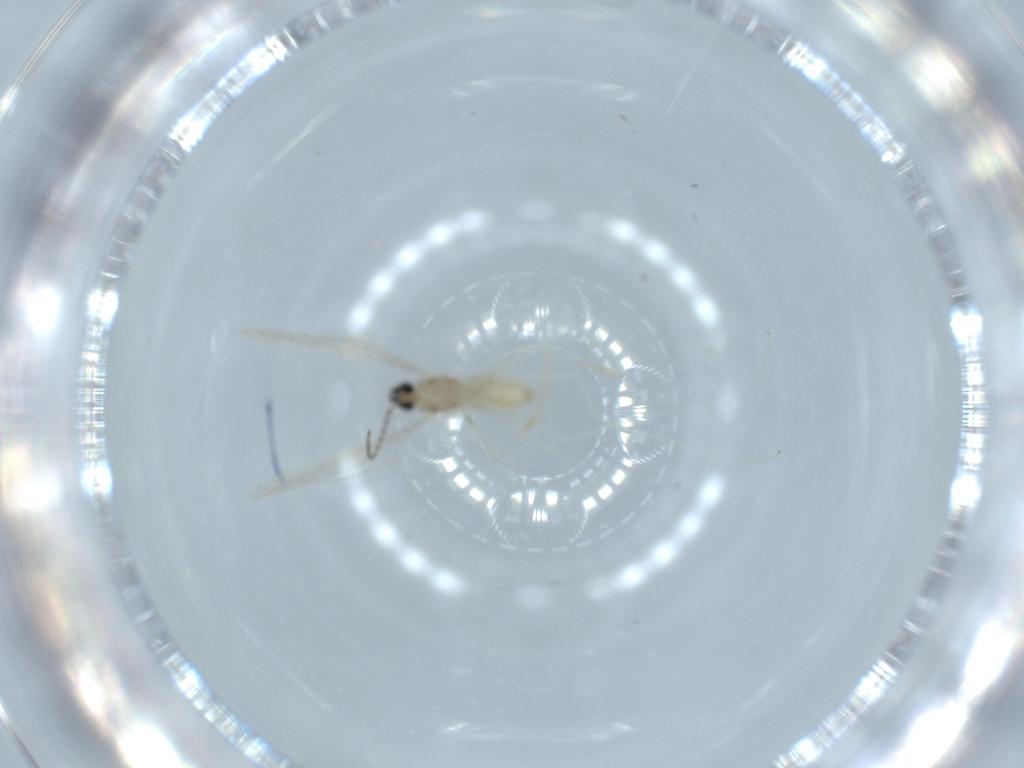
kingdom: Animalia
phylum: Arthropoda
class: Insecta
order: Diptera
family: Cecidomyiidae
